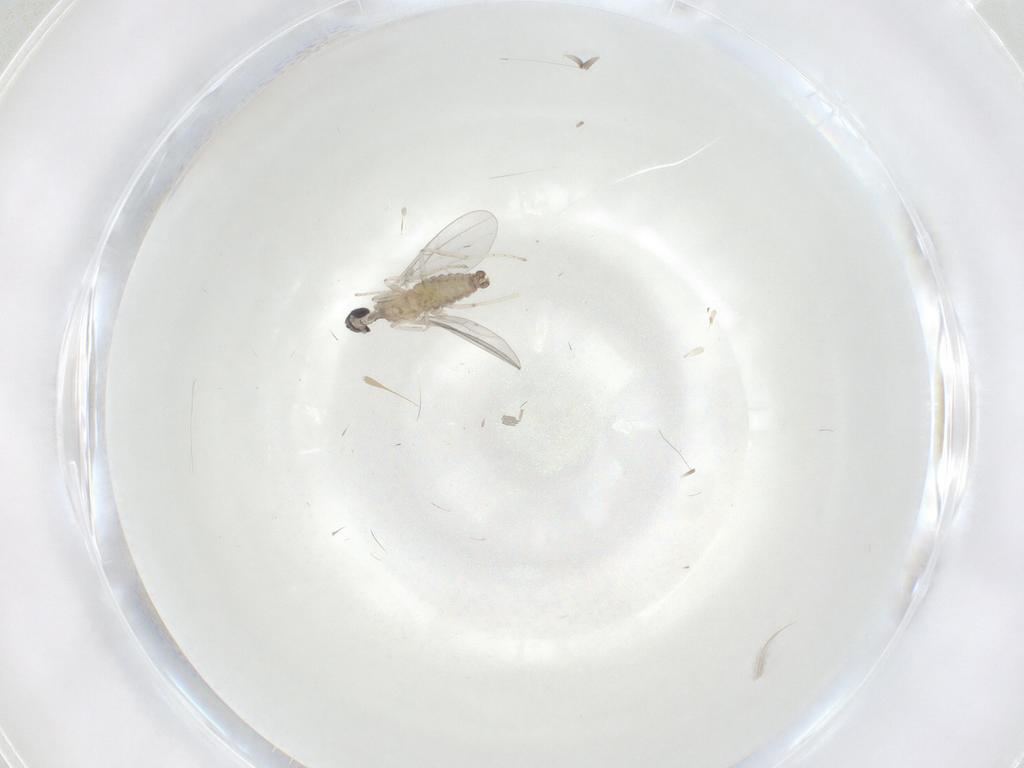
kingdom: Animalia
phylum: Arthropoda
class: Insecta
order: Diptera
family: Cecidomyiidae
